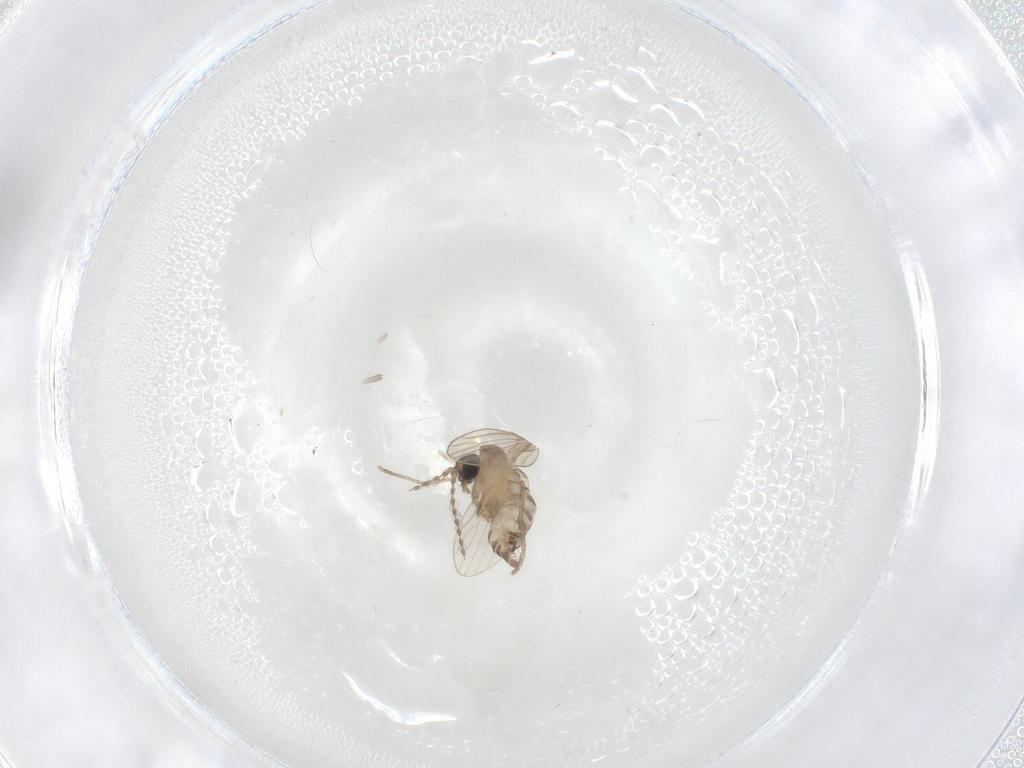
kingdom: Animalia
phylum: Arthropoda
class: Insecta
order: Diptera
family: Psychodidae
